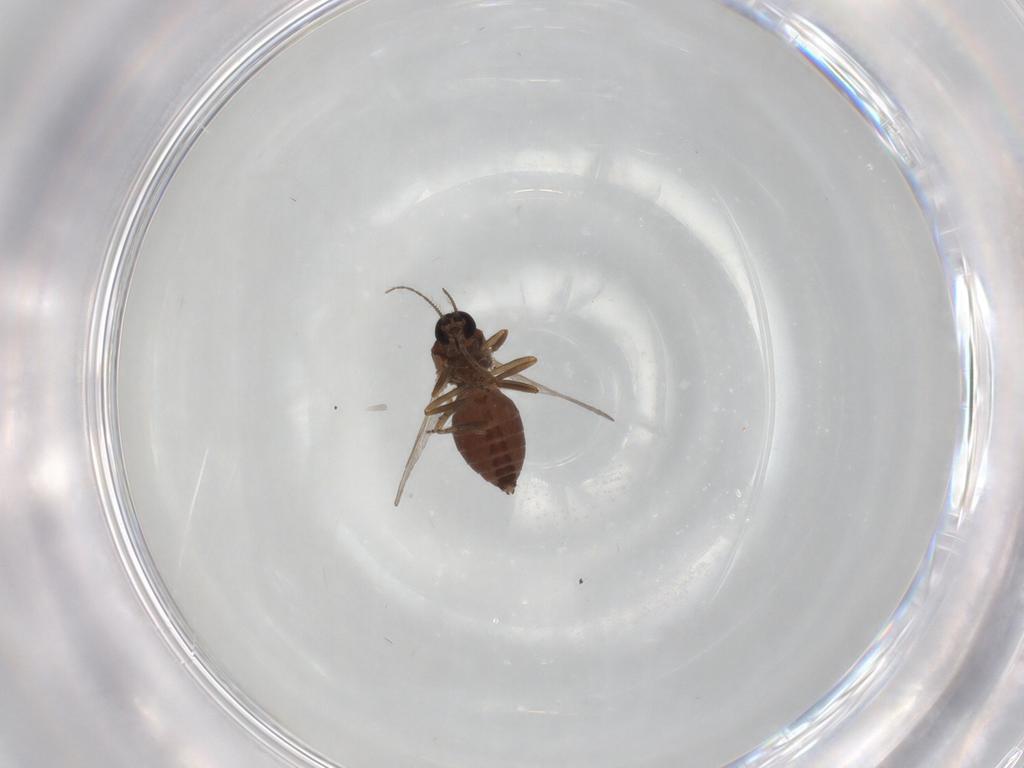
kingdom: Animalia
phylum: Arthropoda
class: Insecta
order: Diptera
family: Ceratopogonidae
